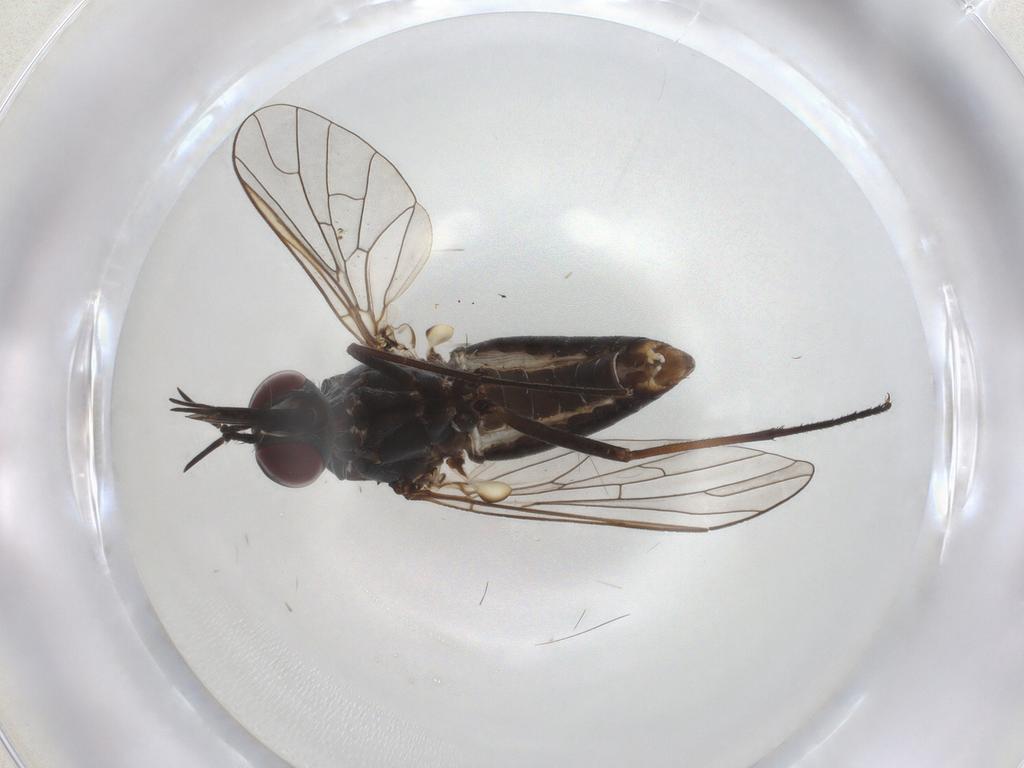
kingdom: Animalia
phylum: Arthropoda
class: Insecta
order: Diptera
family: Bombyliidae
